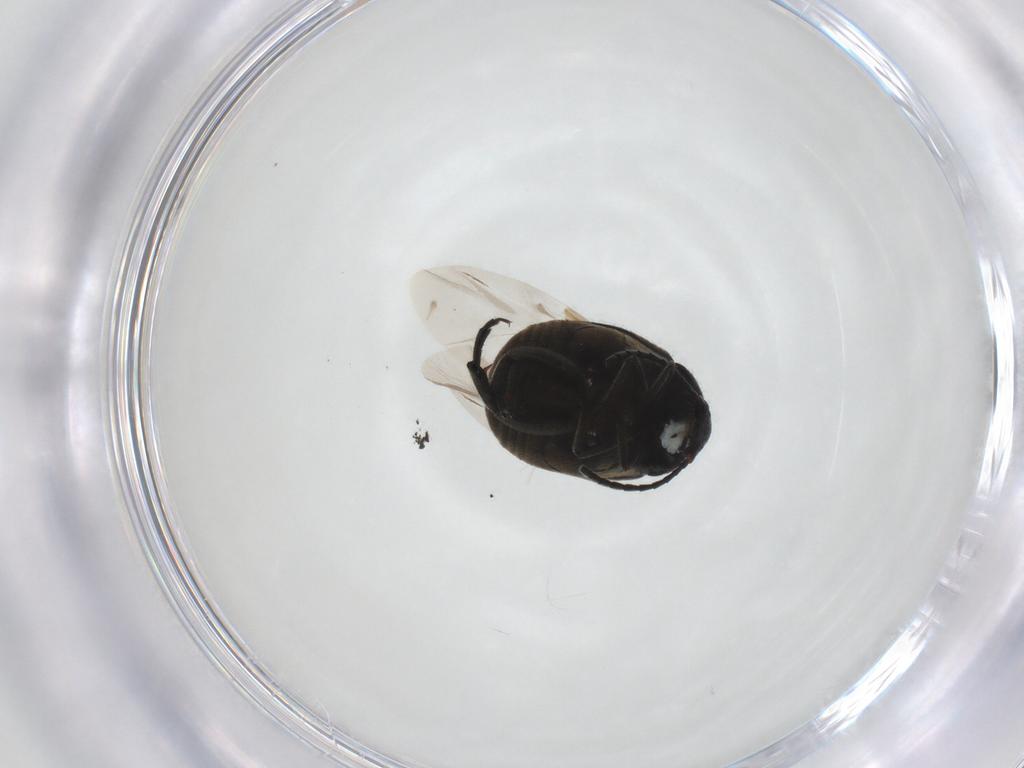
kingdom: Animalia
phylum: Arthropoda
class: Insecta
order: Coleoptera
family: Chrysomelidae
